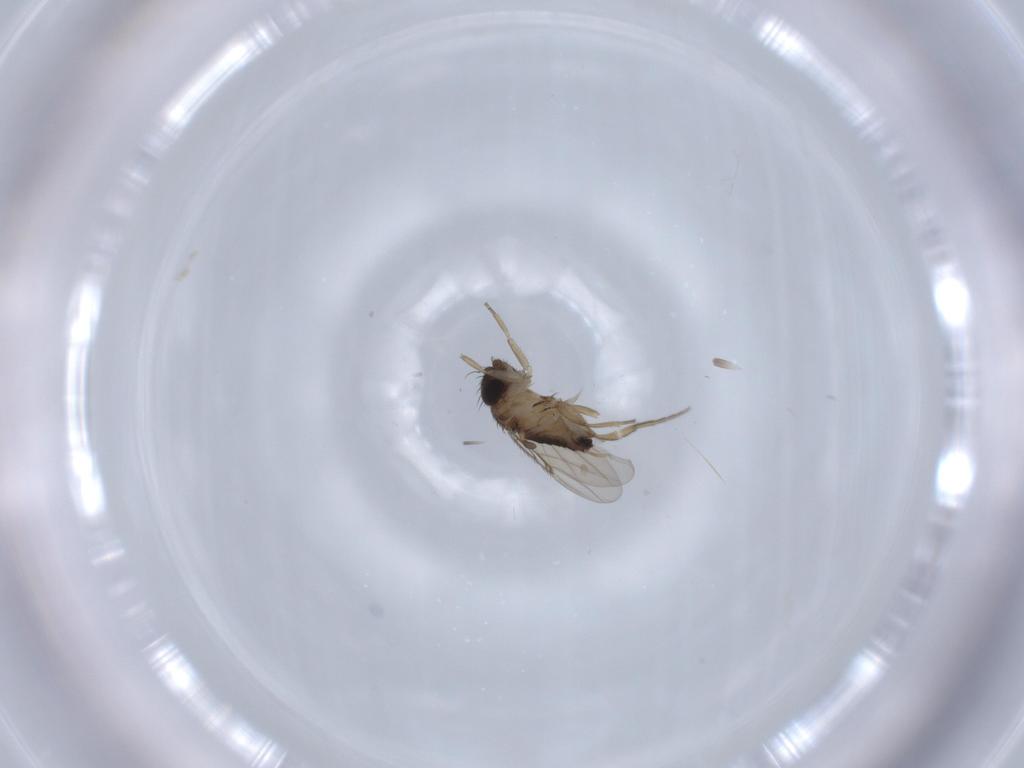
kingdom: Animalia
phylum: Arthropoda
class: Insecta
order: Diptera
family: Phoridae
